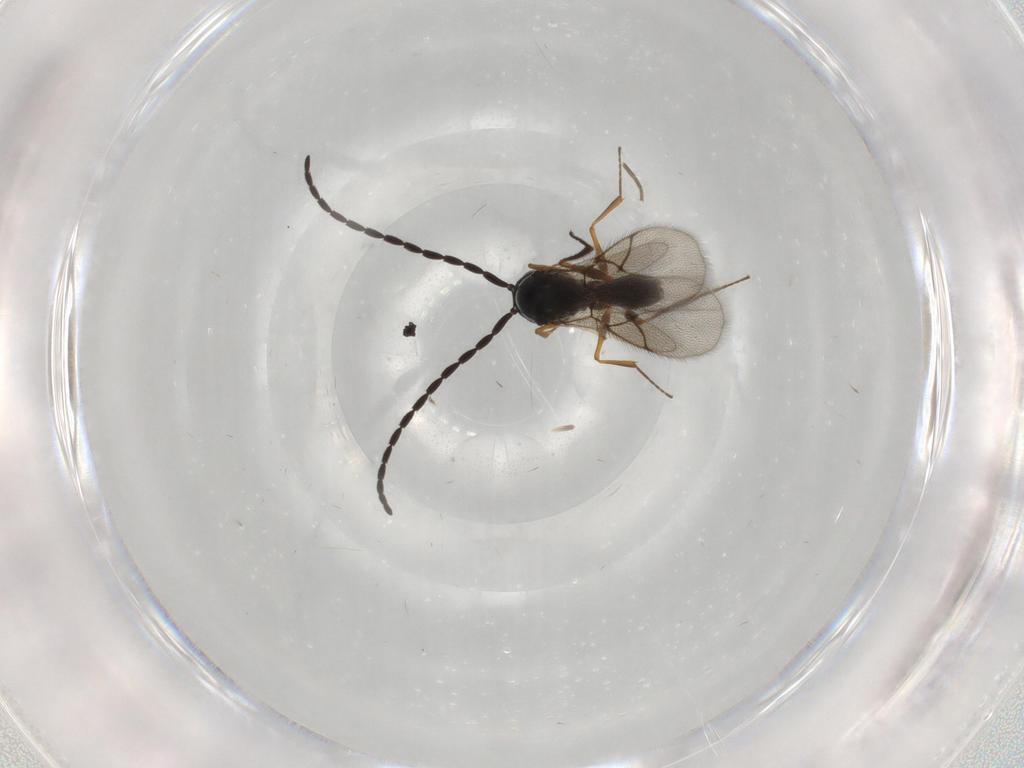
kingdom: Animalia
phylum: Arthropoda
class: Insecta
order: Hymenoptera
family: Figitidae
